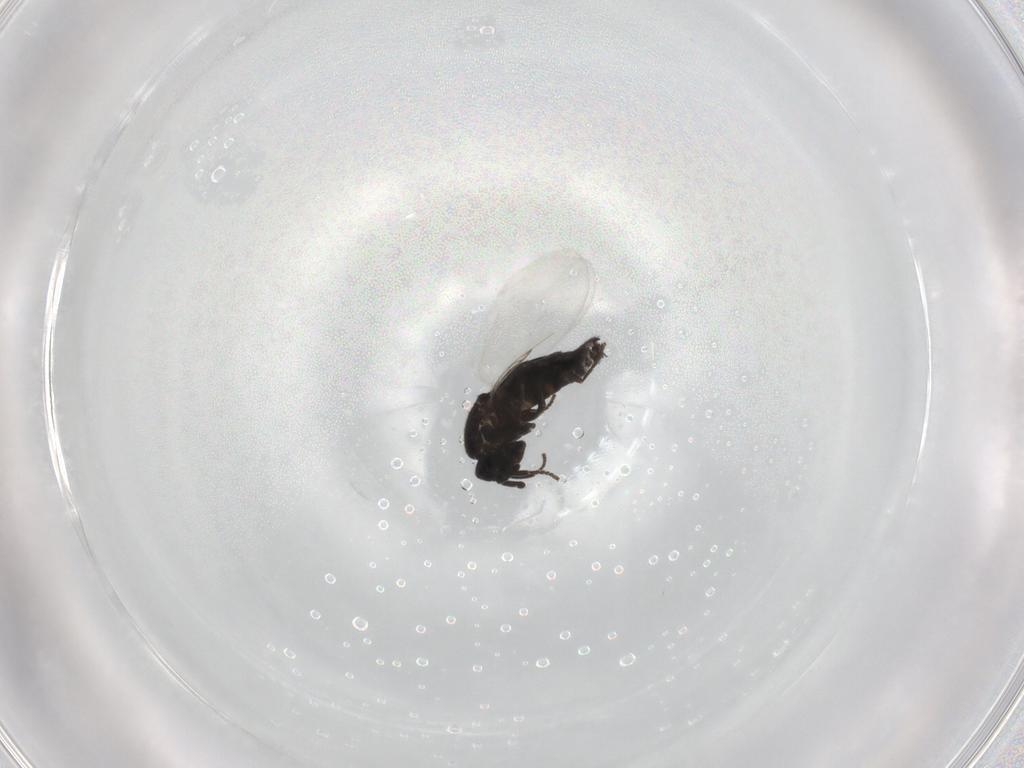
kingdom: Animalia
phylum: Arthropoda
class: Insecta
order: Diptera
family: Scatopsidae
